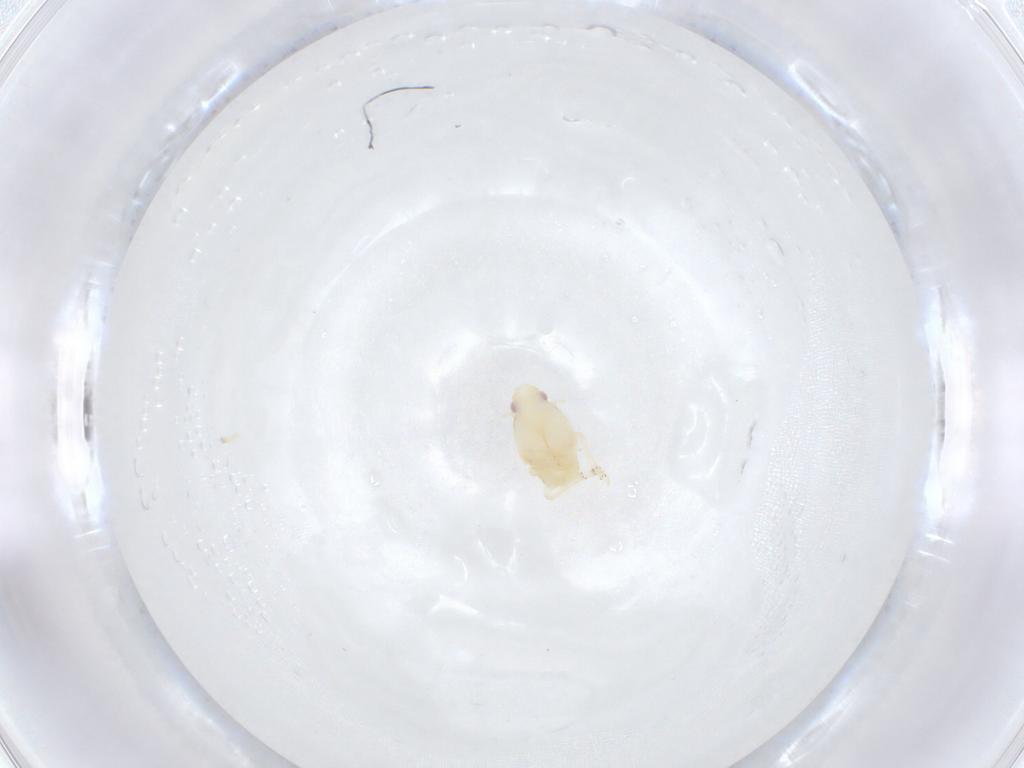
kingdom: Animalia
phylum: Arthropoda
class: Insecta
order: Hemiptera
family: Flatidae
